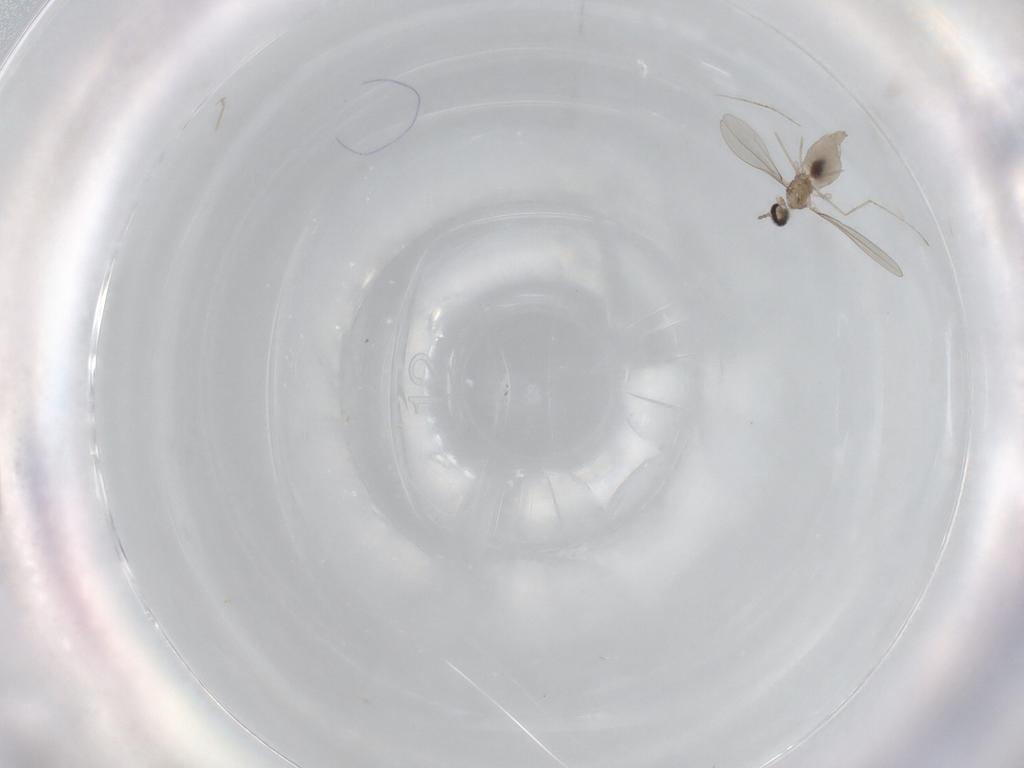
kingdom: Animalia
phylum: Arthropoda
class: Insecta
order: Diptera
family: Cecidomyiidae
